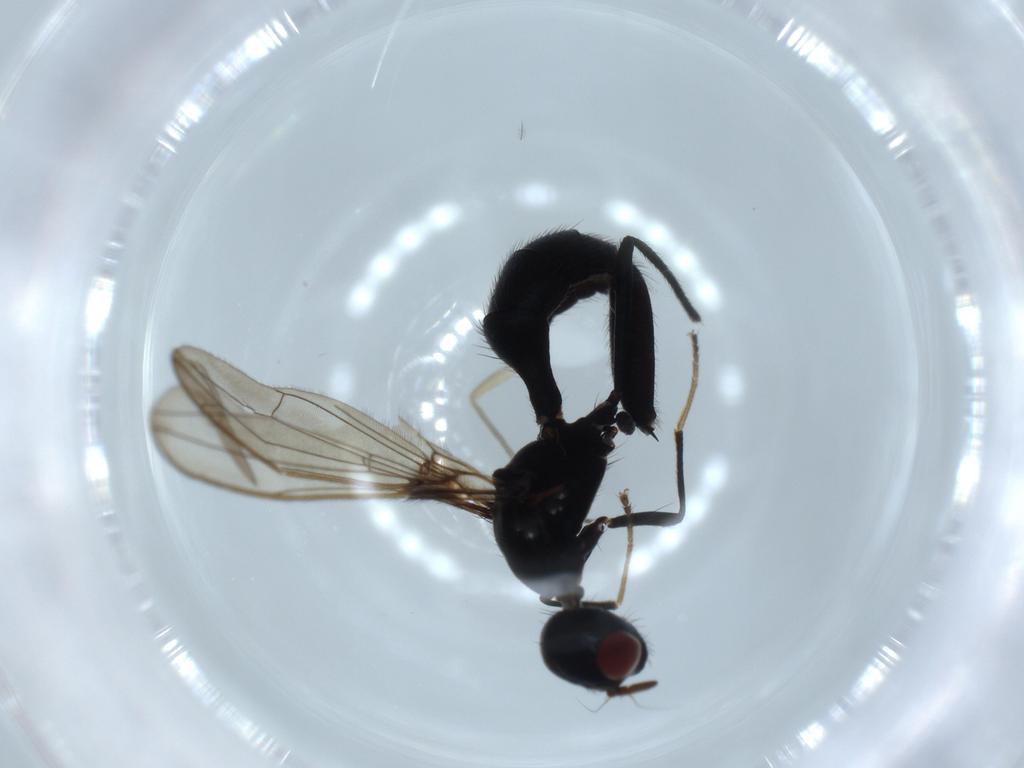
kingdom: Animalia
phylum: Arthropoda
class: Insecta
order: Diptera
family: Richardiidae
